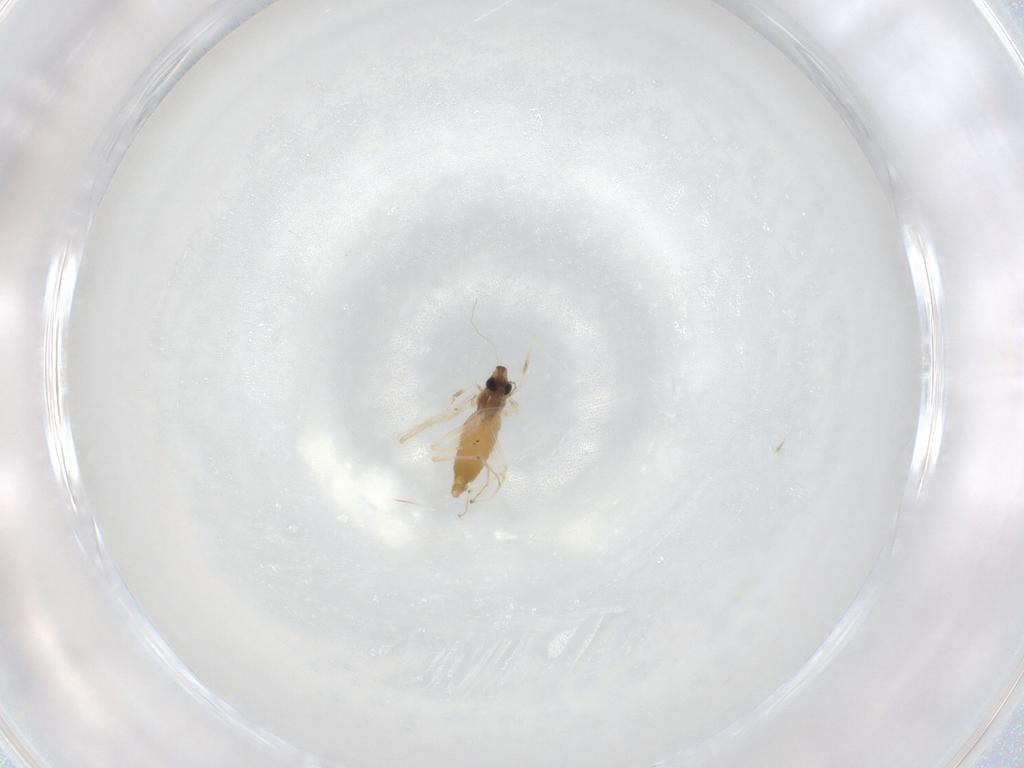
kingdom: Animalia
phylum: Arthropoda
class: Insecta
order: Diptera
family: Chironomidae
